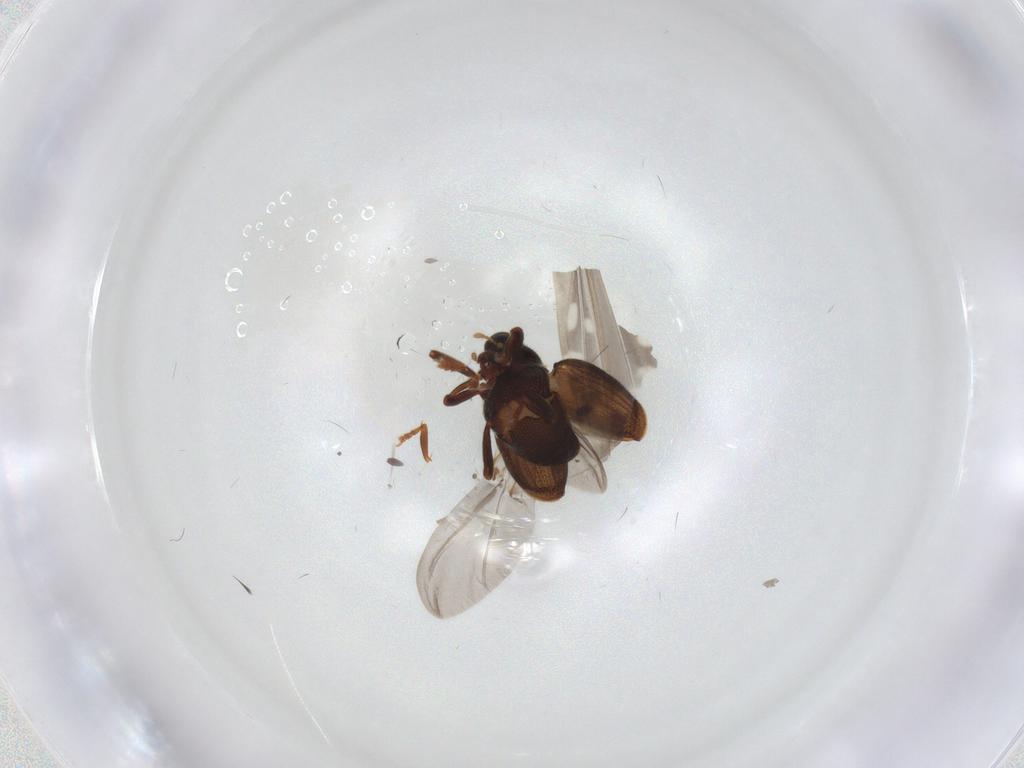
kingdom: Animalia
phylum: Arthropoda
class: Insecta
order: Coleoptera
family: Curculionidae
